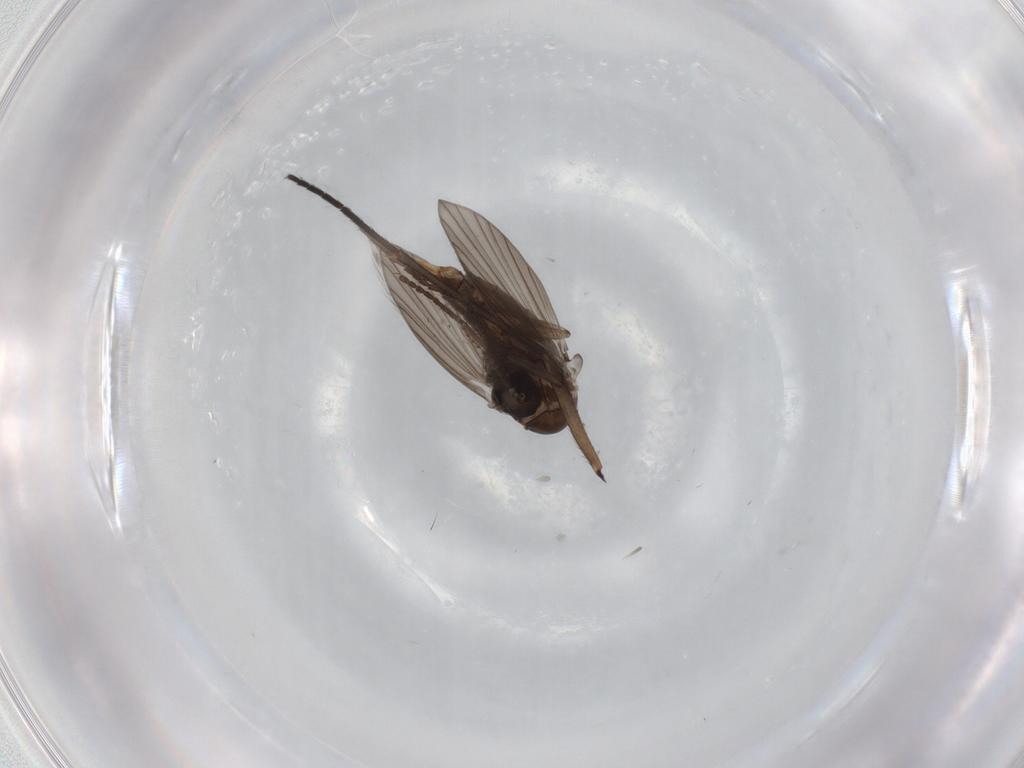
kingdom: Animalia
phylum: Arthropoda
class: Insecta
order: Diptera
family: Psychodidae
